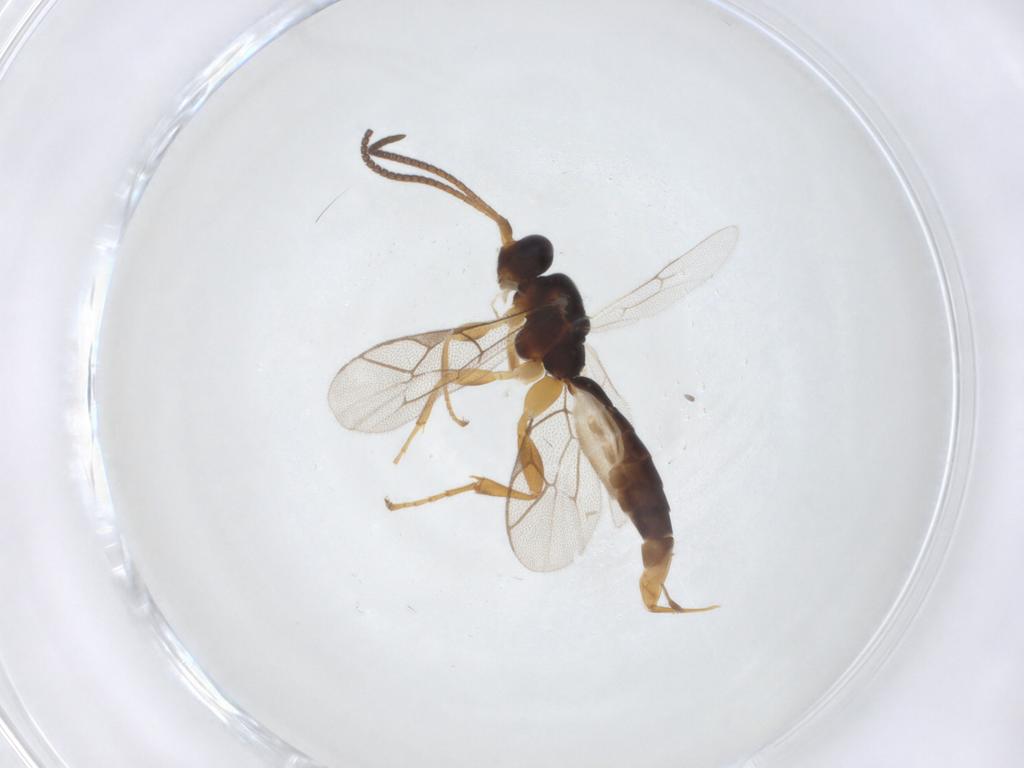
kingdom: Animalia
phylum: Arthropoda
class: Insecta
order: Hymenoptera
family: Ichneumonidae
